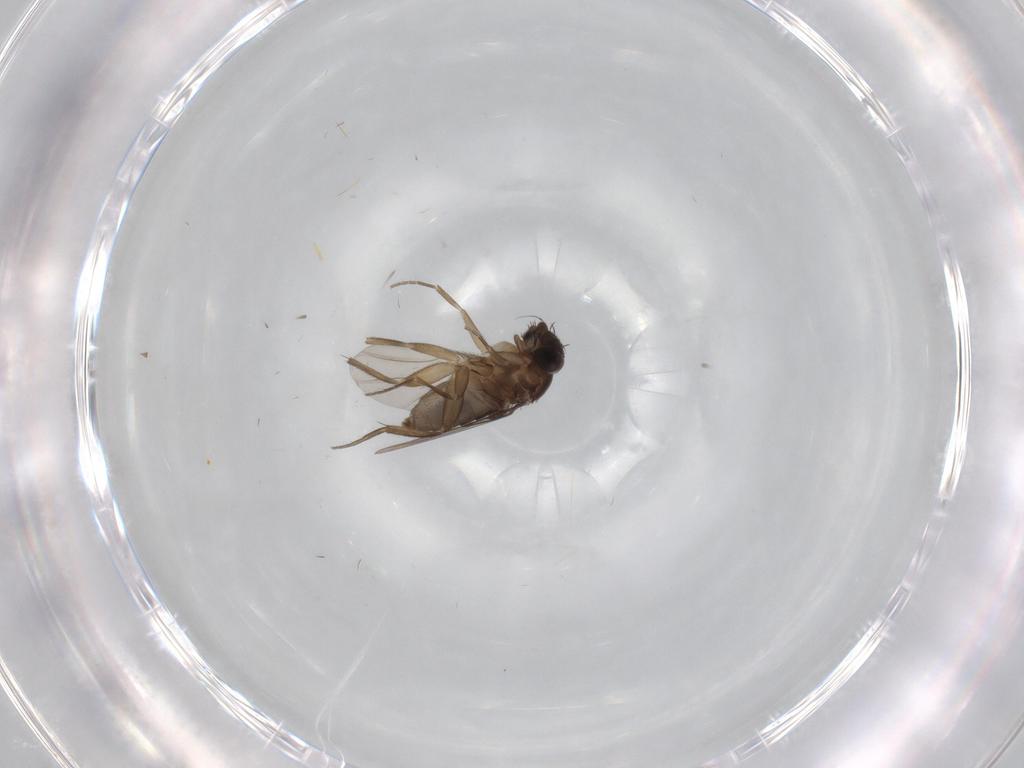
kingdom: Animalia
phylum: Arthropoda
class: Insecta
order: Diptera
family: Phoridae
